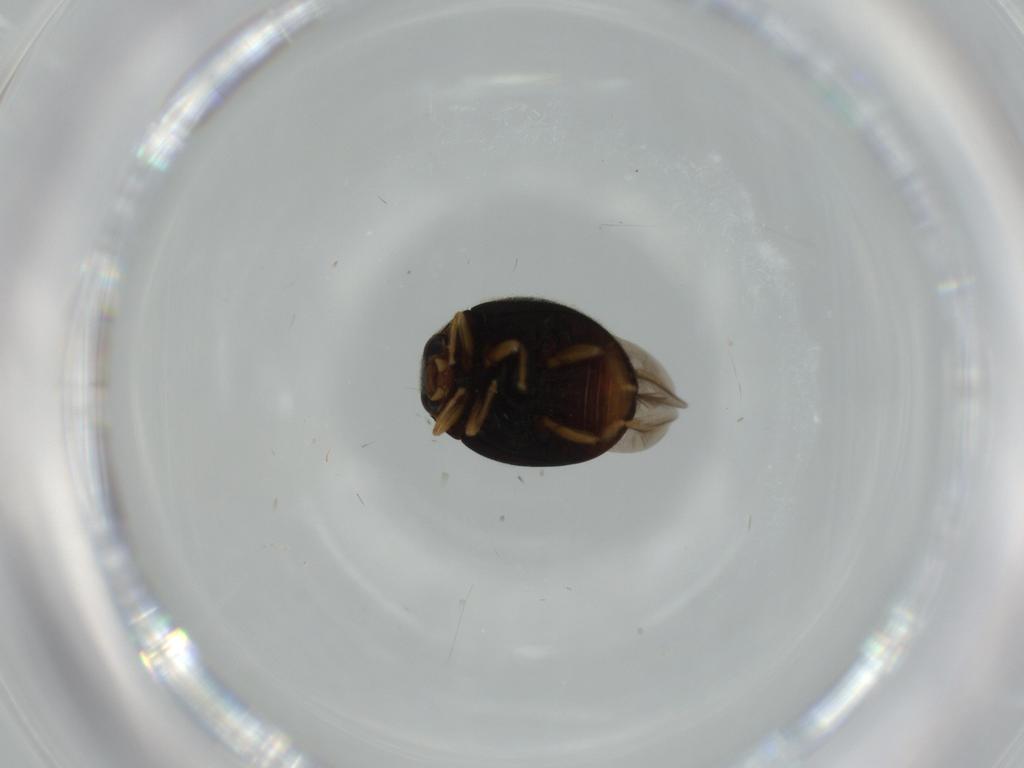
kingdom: Animalia
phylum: Arthropoda
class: Insecta
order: Coleoptera
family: Coccinellidae
